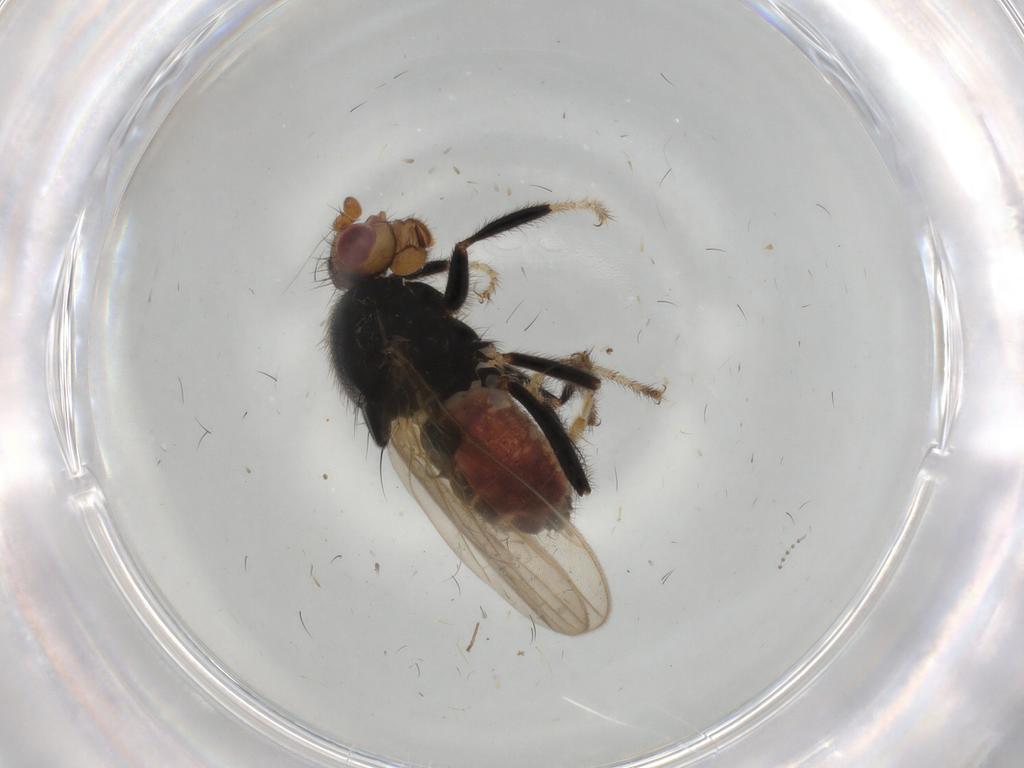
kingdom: Animalia
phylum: Arthropoda
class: Insecta
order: Diptera
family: Sphaeroceridae
